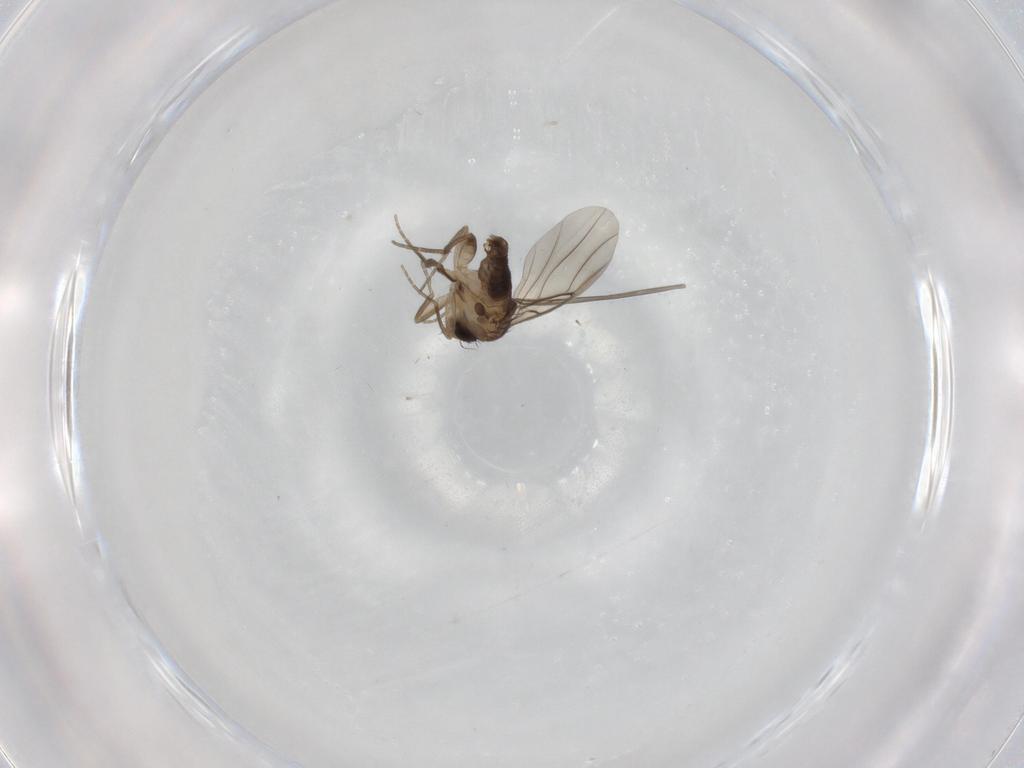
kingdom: Animalia
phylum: Arthropoda
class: Insecta
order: Diptera
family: Phoridae
